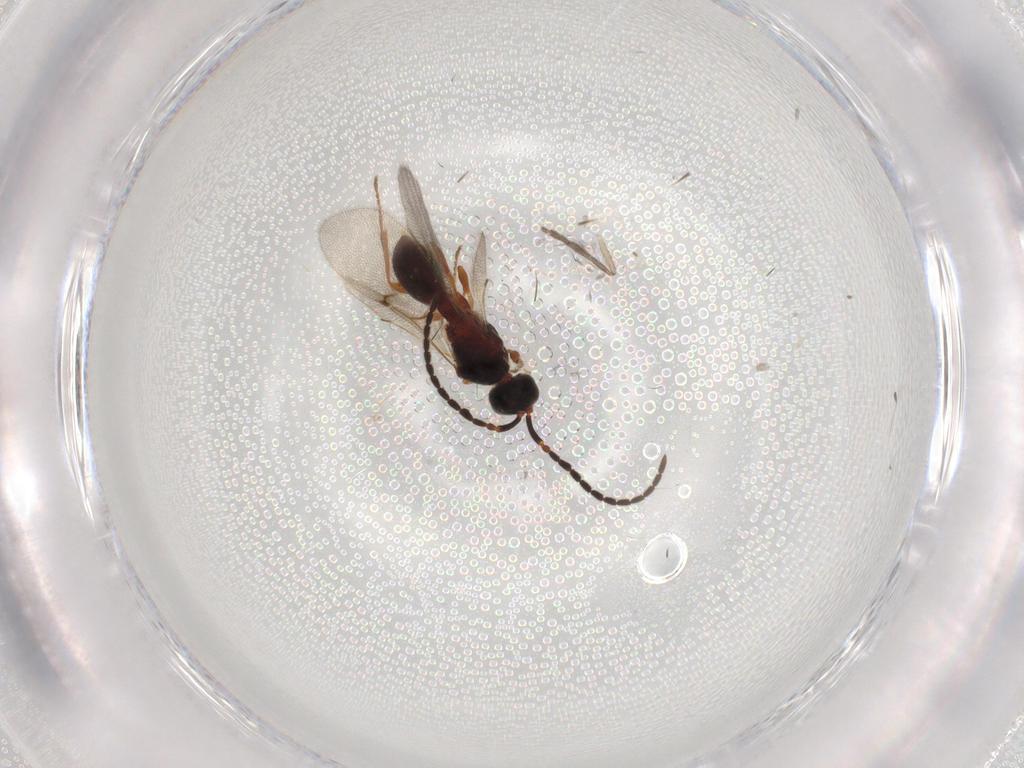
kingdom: Animalia
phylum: Arthropoda
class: Insecta
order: Hymenoptera
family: Diapriidae
